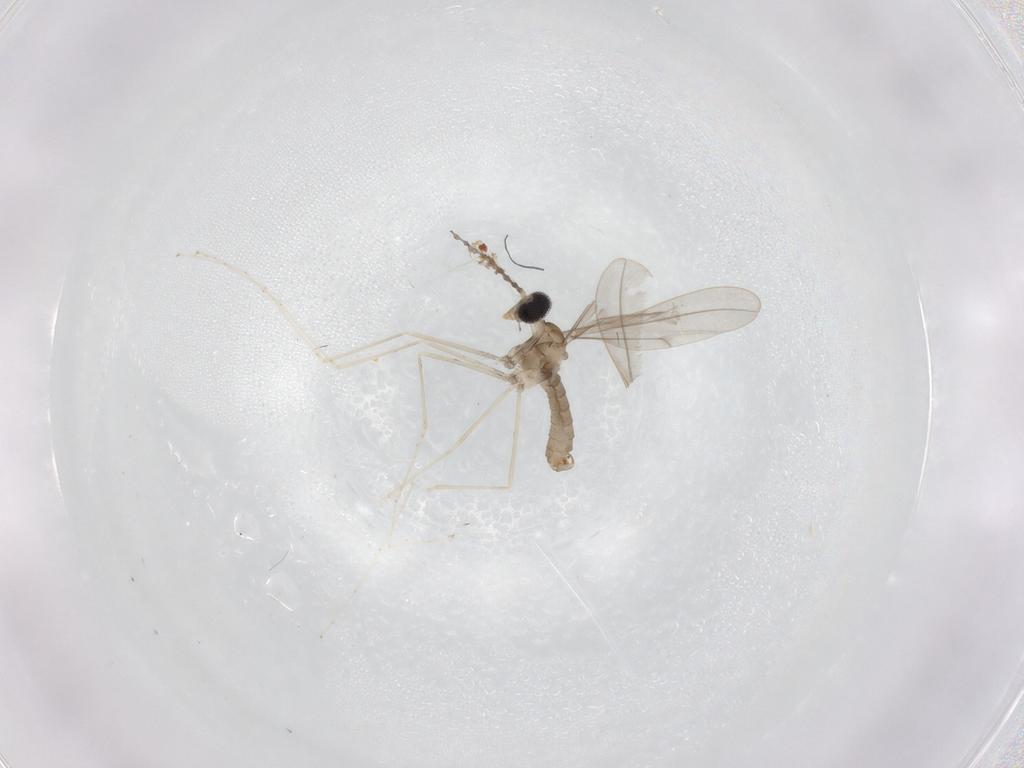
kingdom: Animalia
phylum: Arthropoda
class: Insecta
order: Diptera
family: Cecidomyiidae
